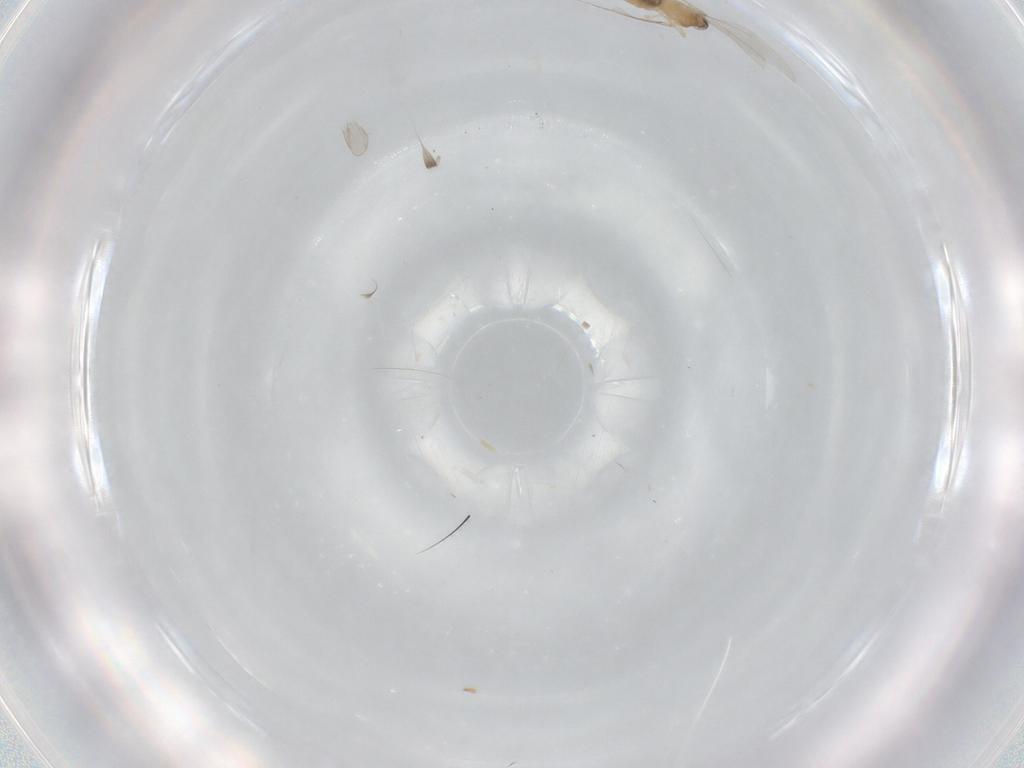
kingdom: Animalia
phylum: Arthropoda
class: Insecta
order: Diptera
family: Cecidomyiidae
